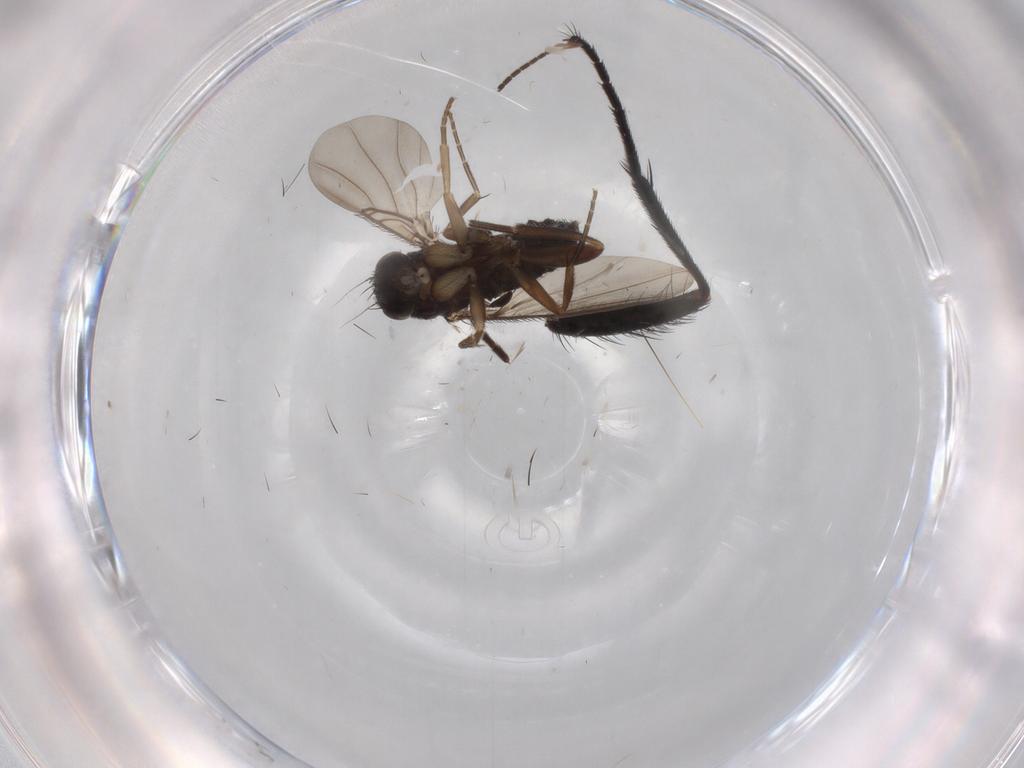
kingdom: Animalia
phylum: Arthropoda
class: Insecta
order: Diptera
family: Phoridae
